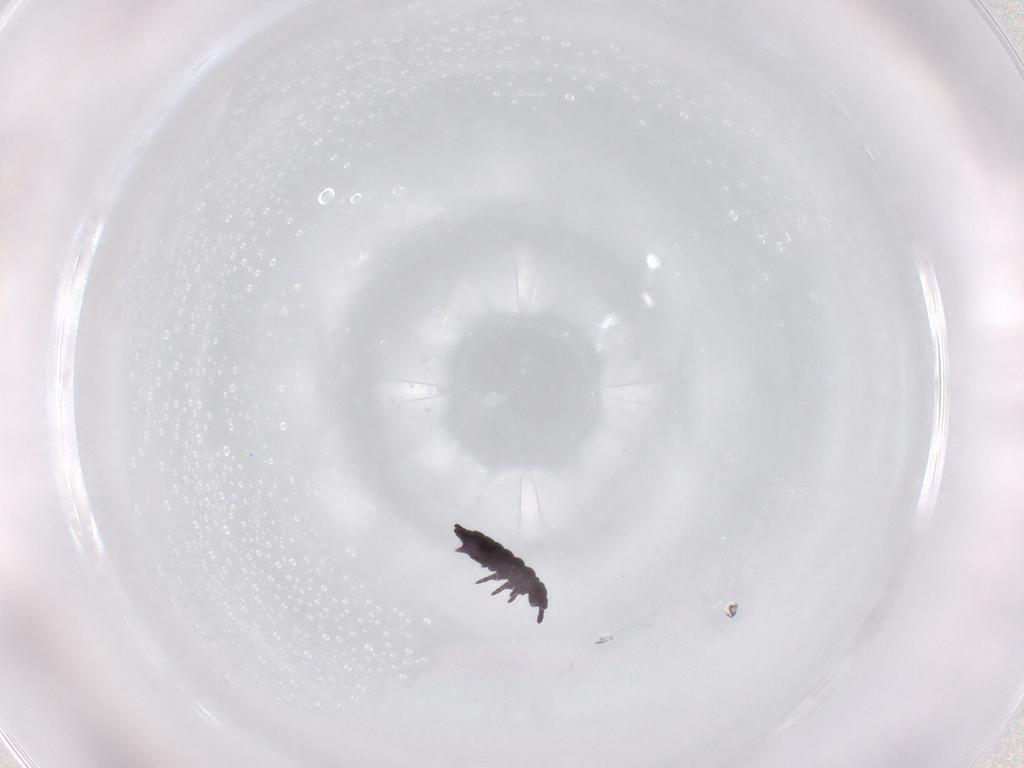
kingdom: Animalia
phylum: Arthropoda
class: Collembola
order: Poduromorpha
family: Hypogastruridae
